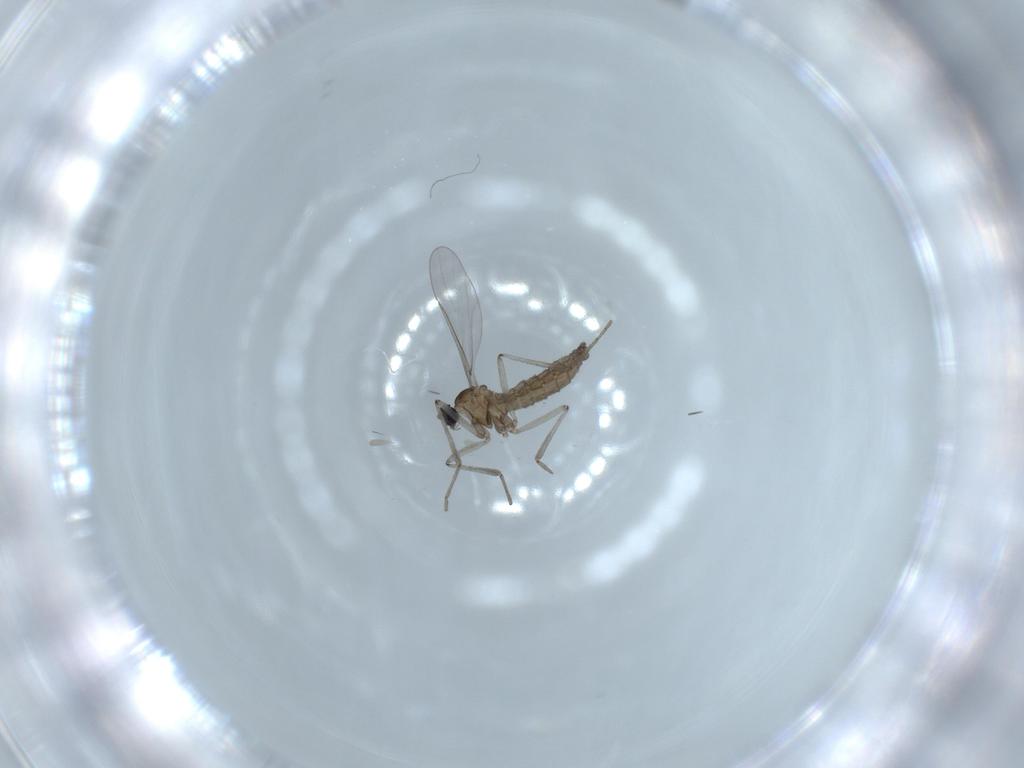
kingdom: Animalia
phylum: Arthropoda
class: Insecta
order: Diptera
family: Cecidomyiidae
